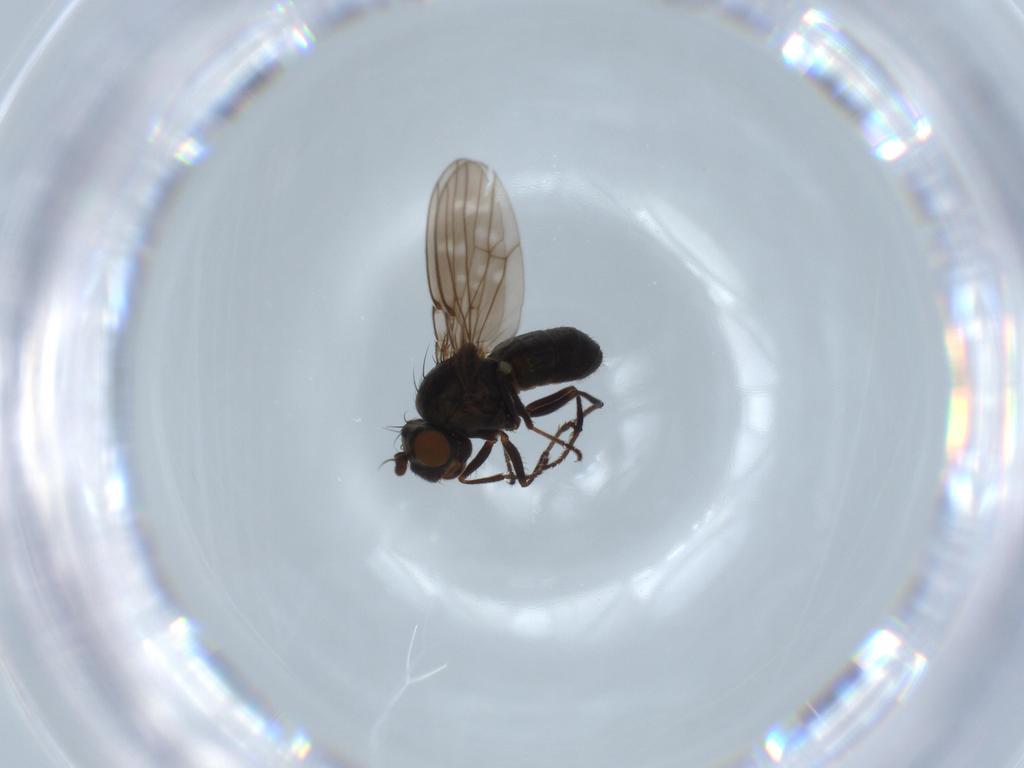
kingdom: Animalia
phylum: Arthropoda
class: Insecta
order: Diptera
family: Ephydridae
